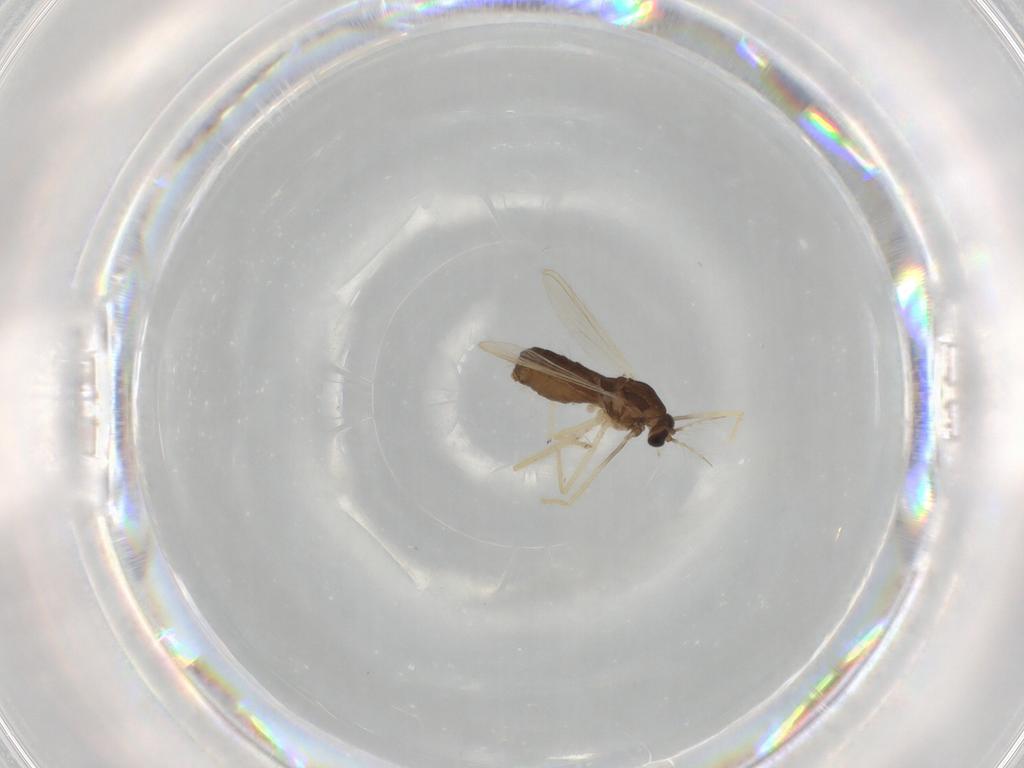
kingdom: Animalia
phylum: Arthropoda
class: Insecta
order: Diptera
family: Chironomidae
